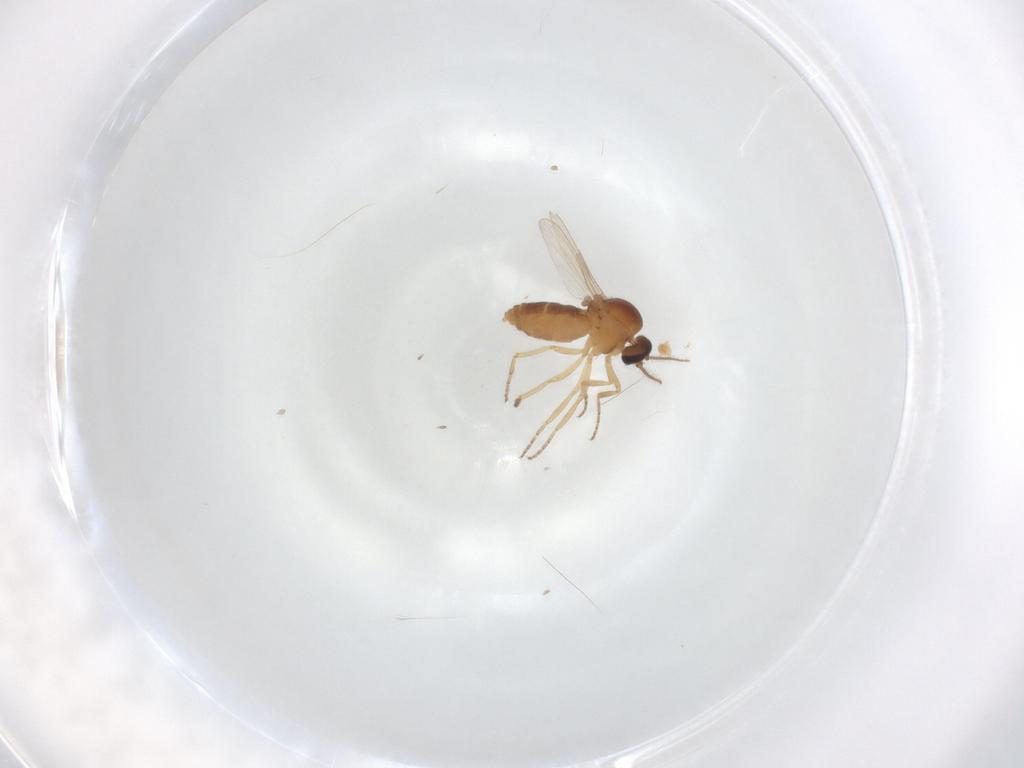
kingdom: Animalia
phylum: Arthropoda
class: Insecta
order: Diptera
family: Ceratopogonidae
